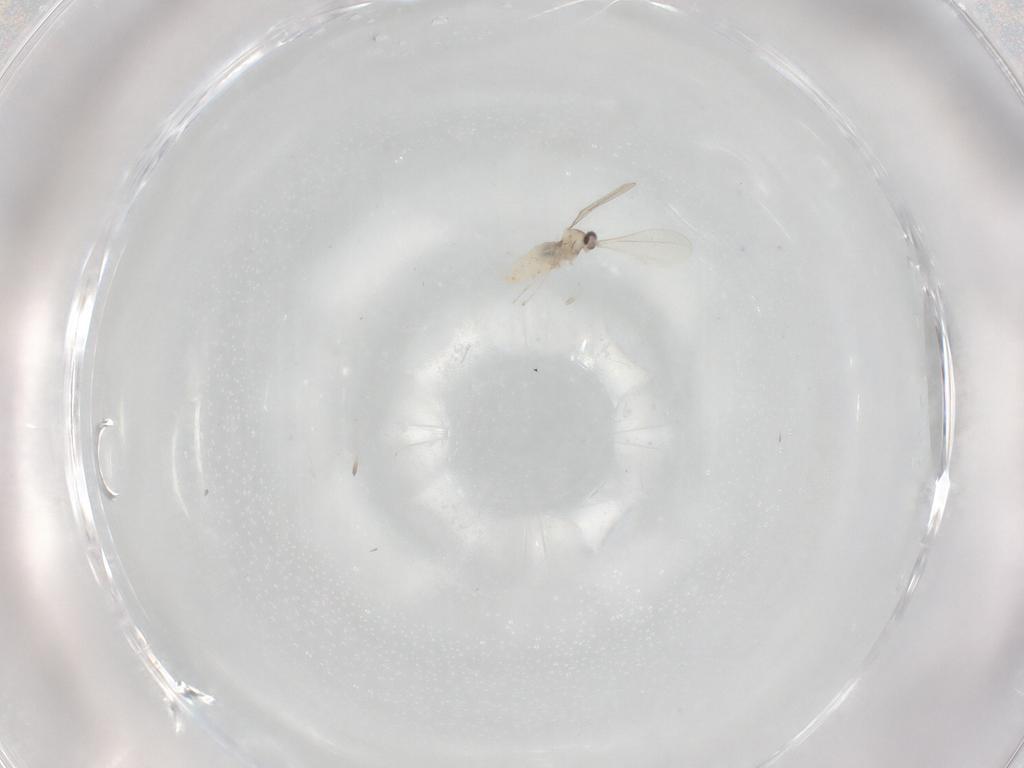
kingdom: Animalia
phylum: Arthropoda
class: Insecta
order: Diptera
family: Cecidomyiidae
